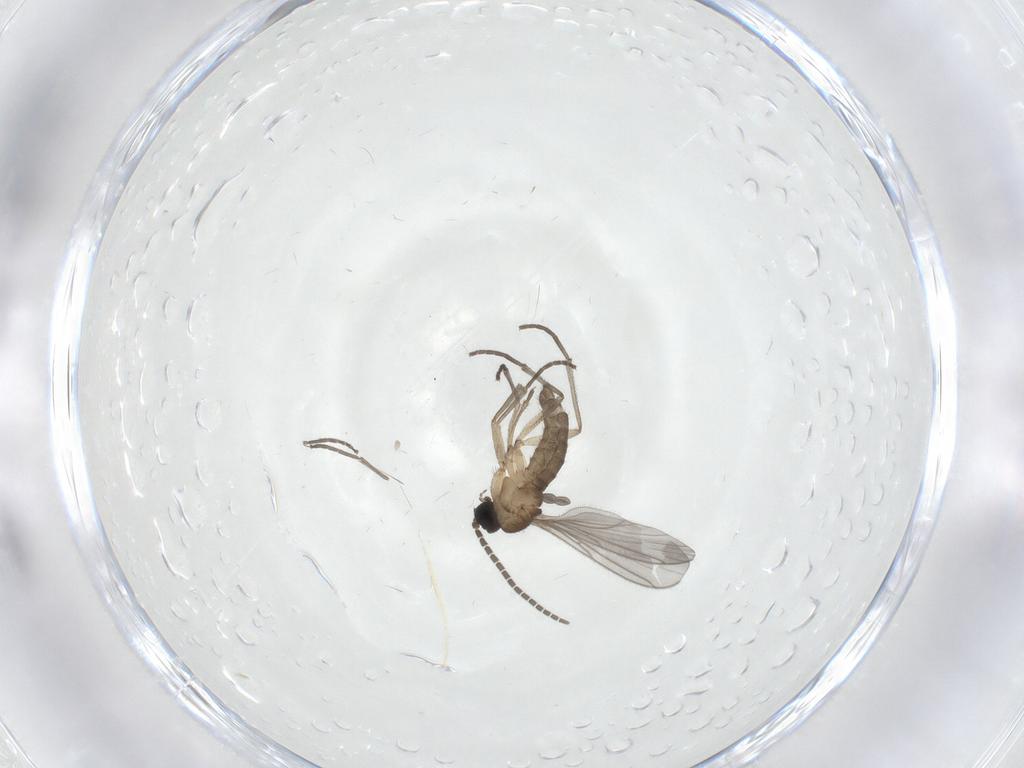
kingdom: Animalia
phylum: Arthropoda
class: Insecta
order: Diptera
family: Sciaridae
